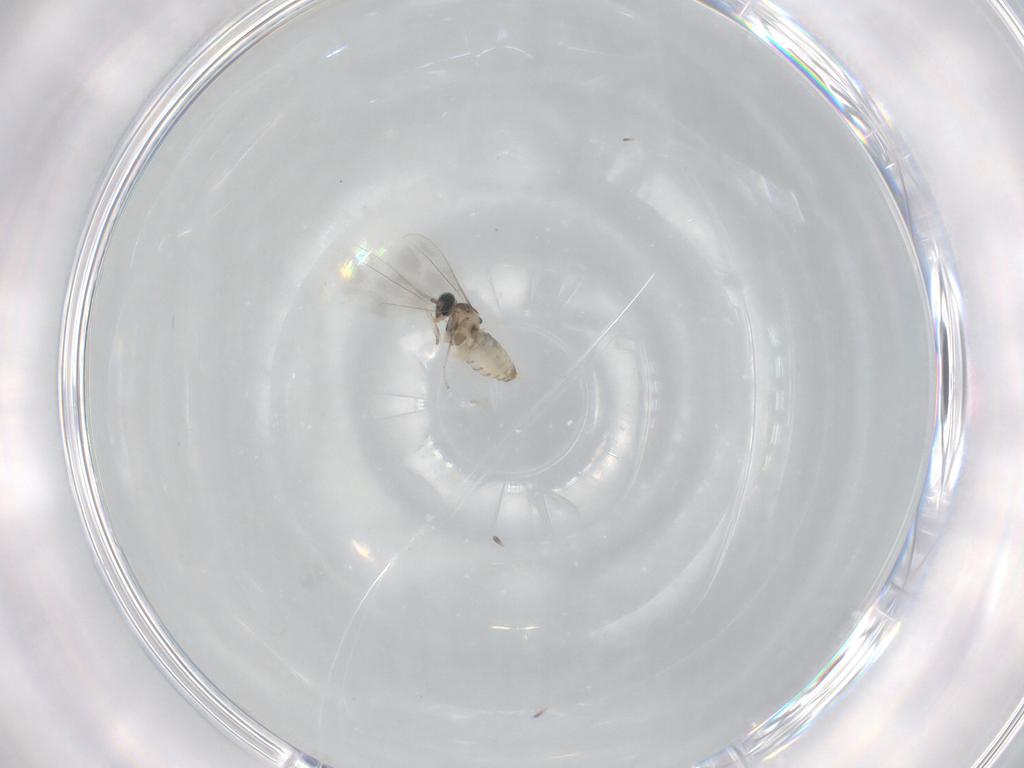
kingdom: Animalia
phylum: Arthropoda
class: Insecta
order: Diptera
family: Cecidomyiidae
